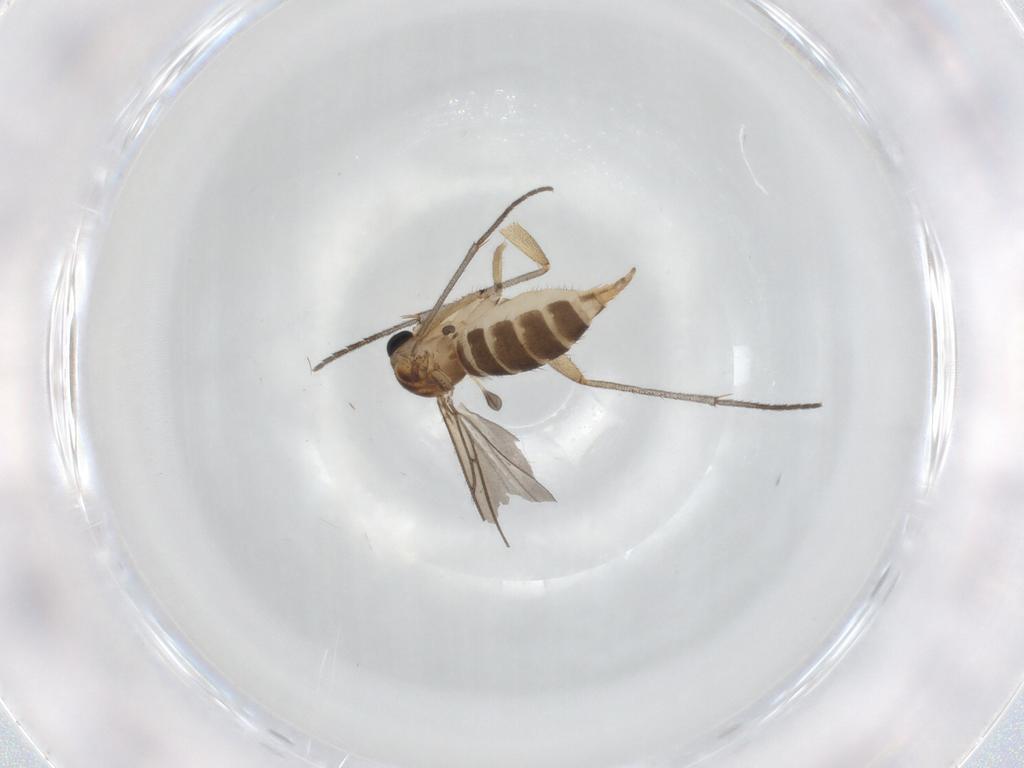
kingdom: Animalia
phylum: Arthropoda
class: Insecta
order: Diptera
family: Sciaridae
